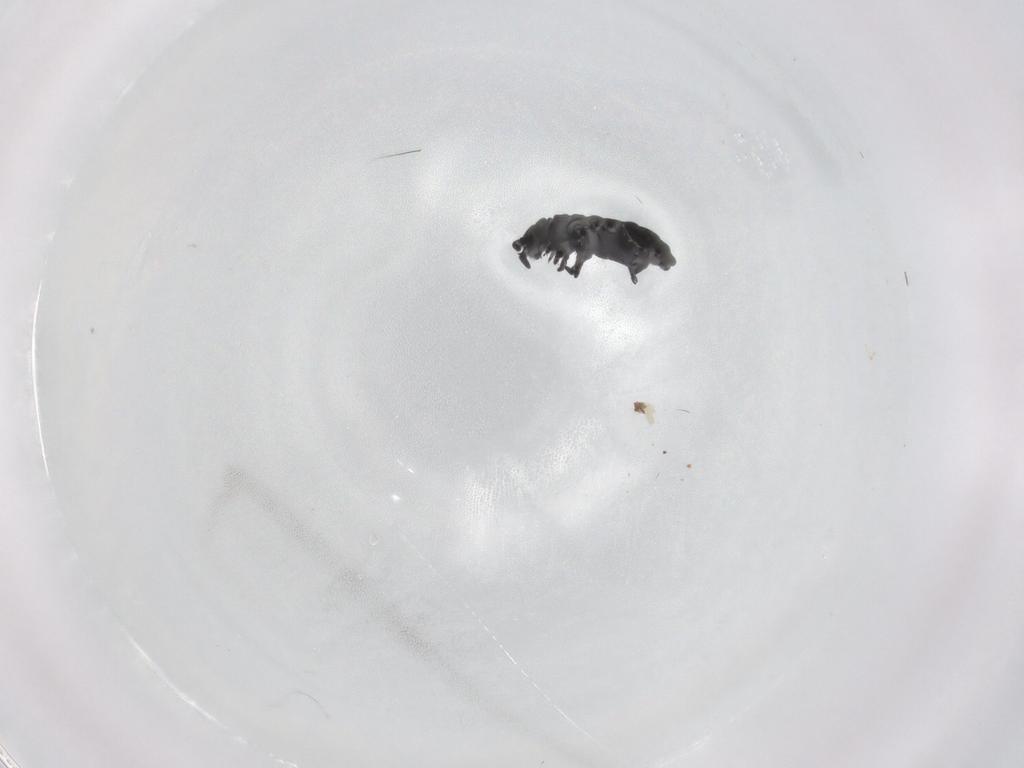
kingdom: Animalia
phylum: Arthropoda
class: Collembola
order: Poduromorpha
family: Hypogastruridae
